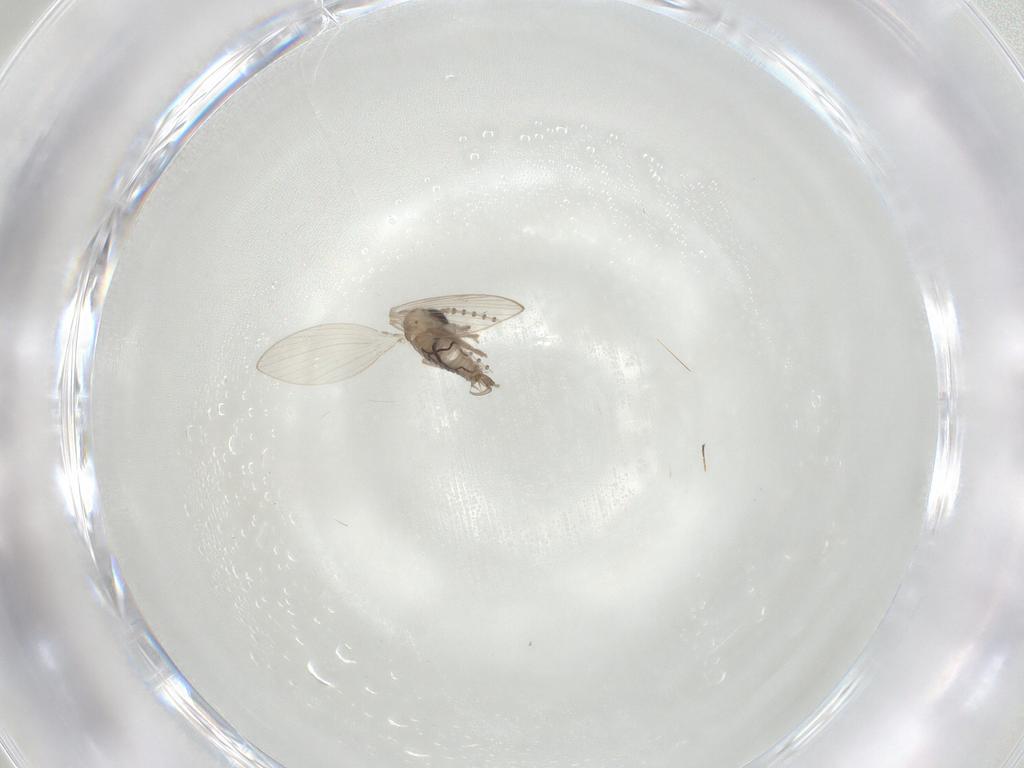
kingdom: Animalia
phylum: Arthropoda
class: Insecta
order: Diptera
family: Psychodidae
